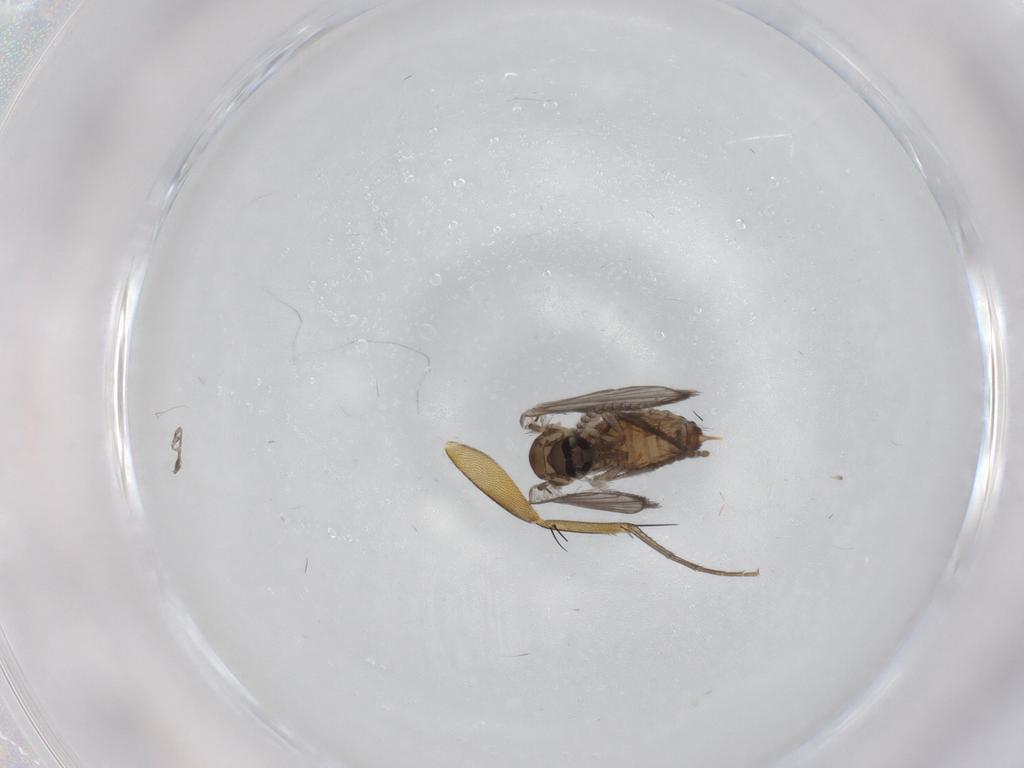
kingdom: Animalia
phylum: Arthropoda
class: Insecta
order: Diptera
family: Psychodidae
